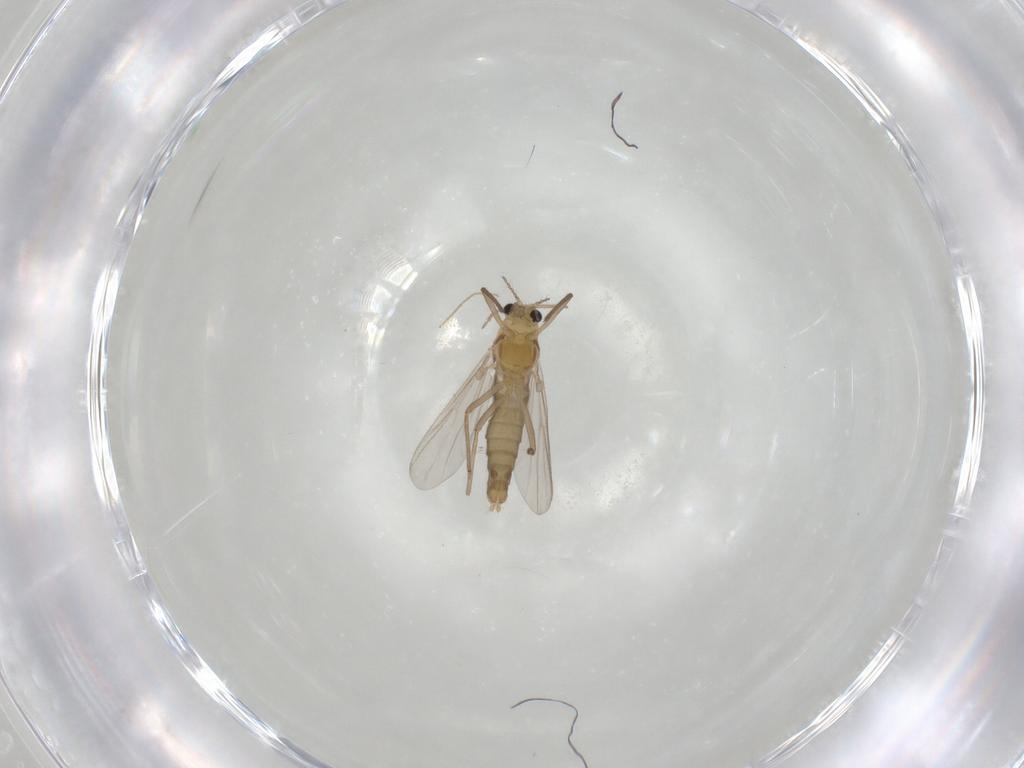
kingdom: Animalia
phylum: Arthropoda
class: Insecta
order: Diptera
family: Chironomidae
